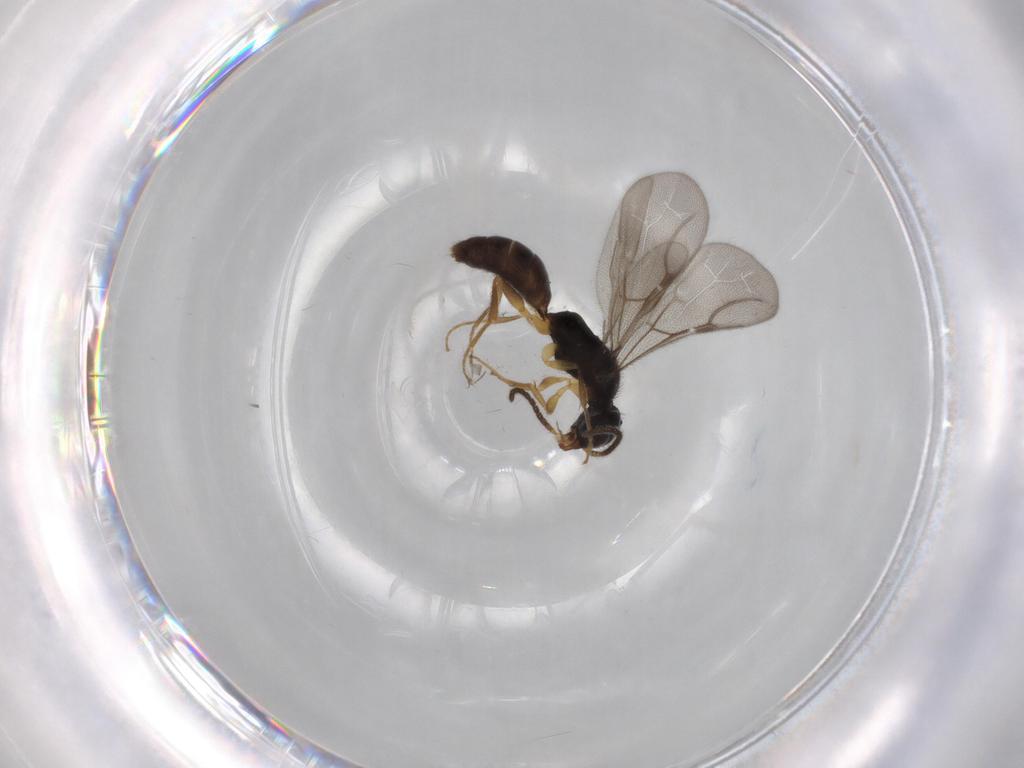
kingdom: Animalia
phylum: Arthropoda
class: Insecta
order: Hymenoptera
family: Bethylidae
